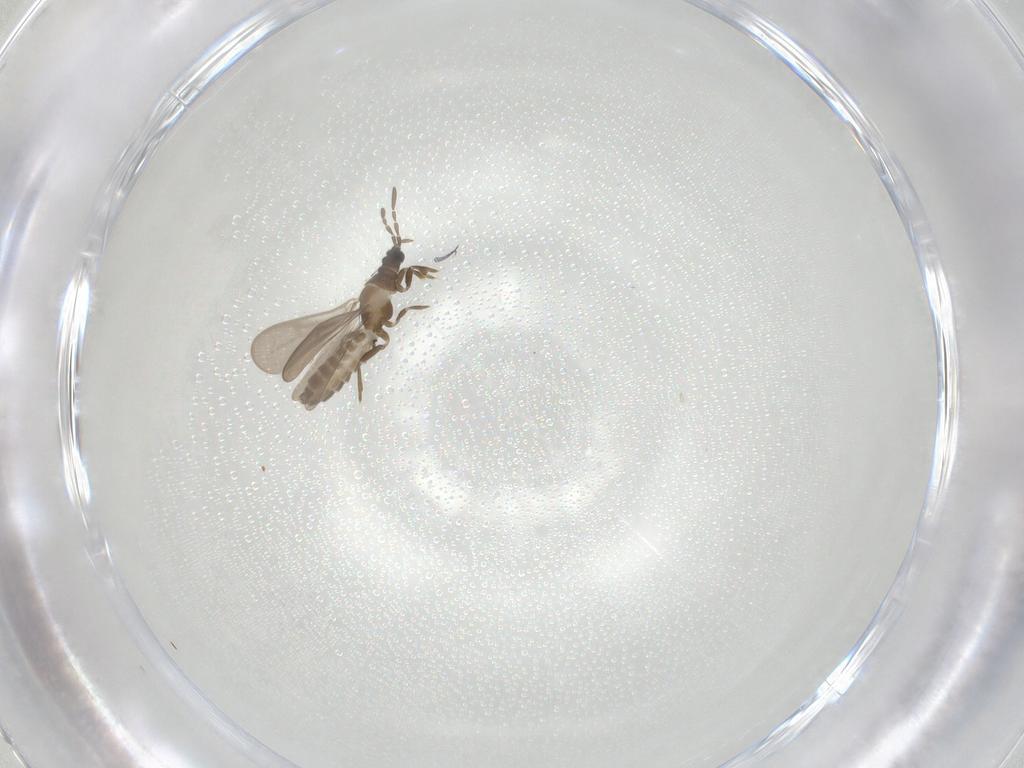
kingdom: Animalia
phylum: Arthropoda
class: Insecta
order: Hemiptera
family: Enicocephalidae
